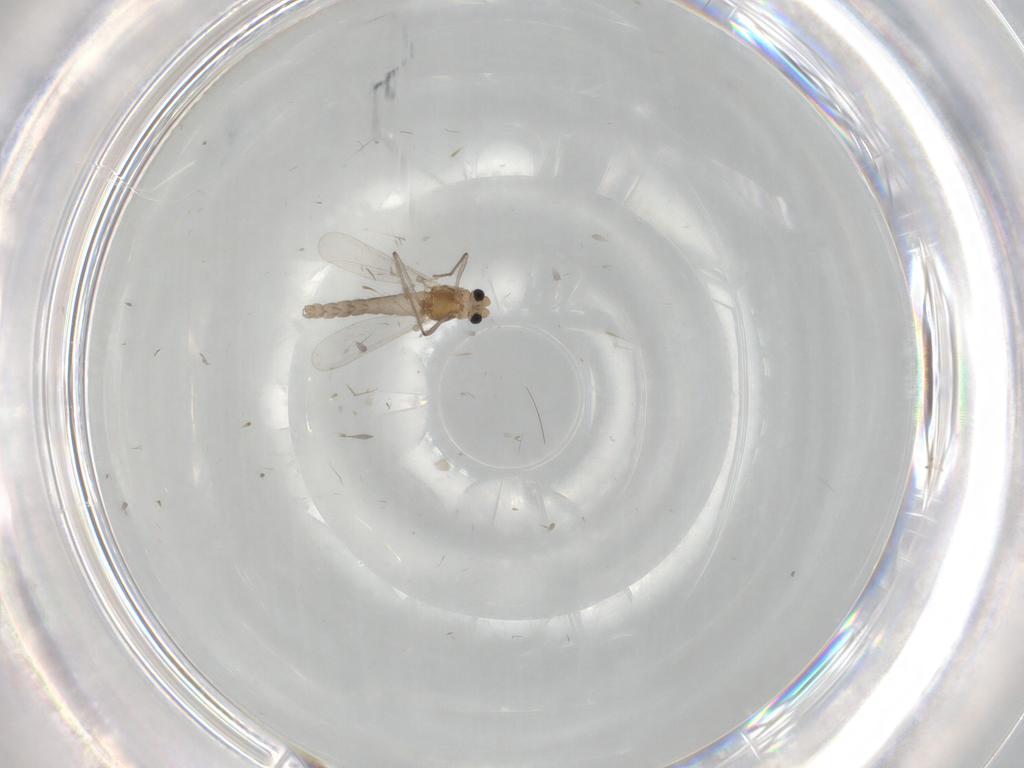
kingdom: Animalia
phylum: Arthropoda
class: Insecta
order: Diptera
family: Chironomidae
